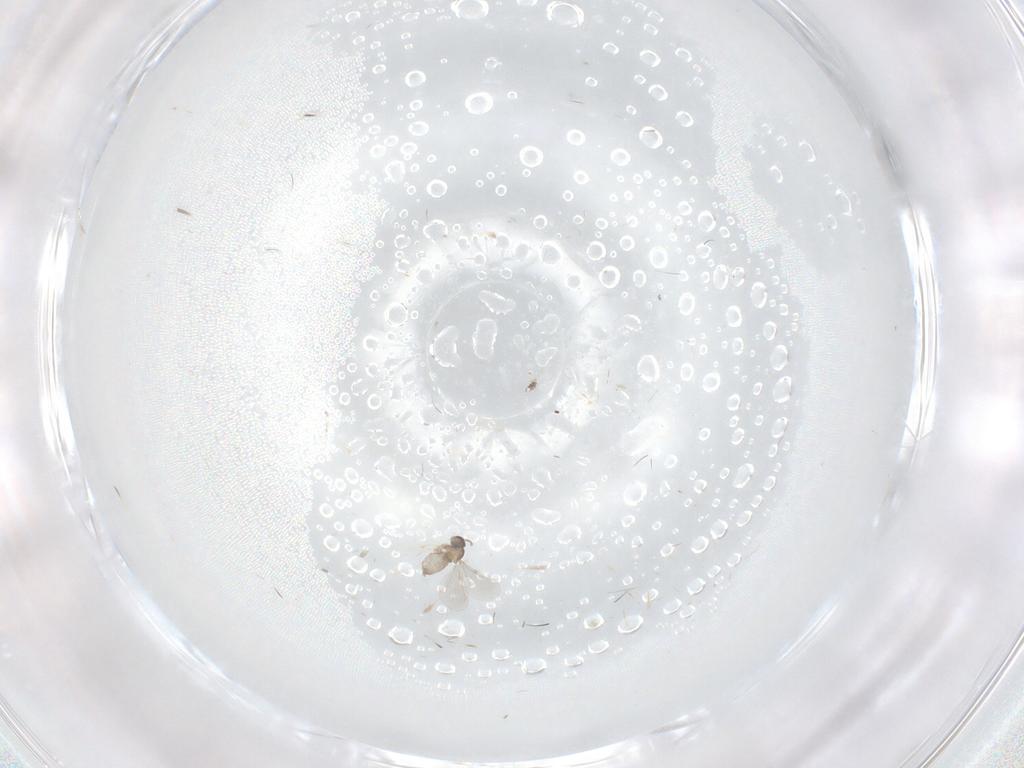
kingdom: Animalia
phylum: Arthropoda
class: Insecta
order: Diptera
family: Cecidomyiidae
